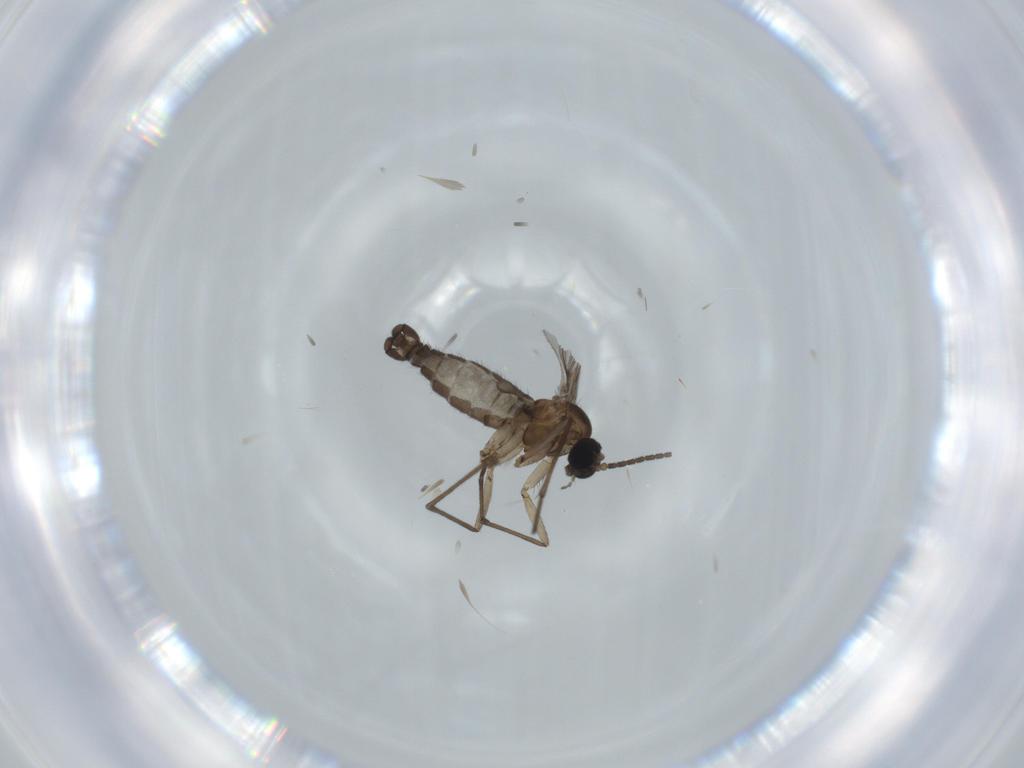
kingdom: Animalia
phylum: Arthropoda
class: Insecta
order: Diptera
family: Sciaridae
